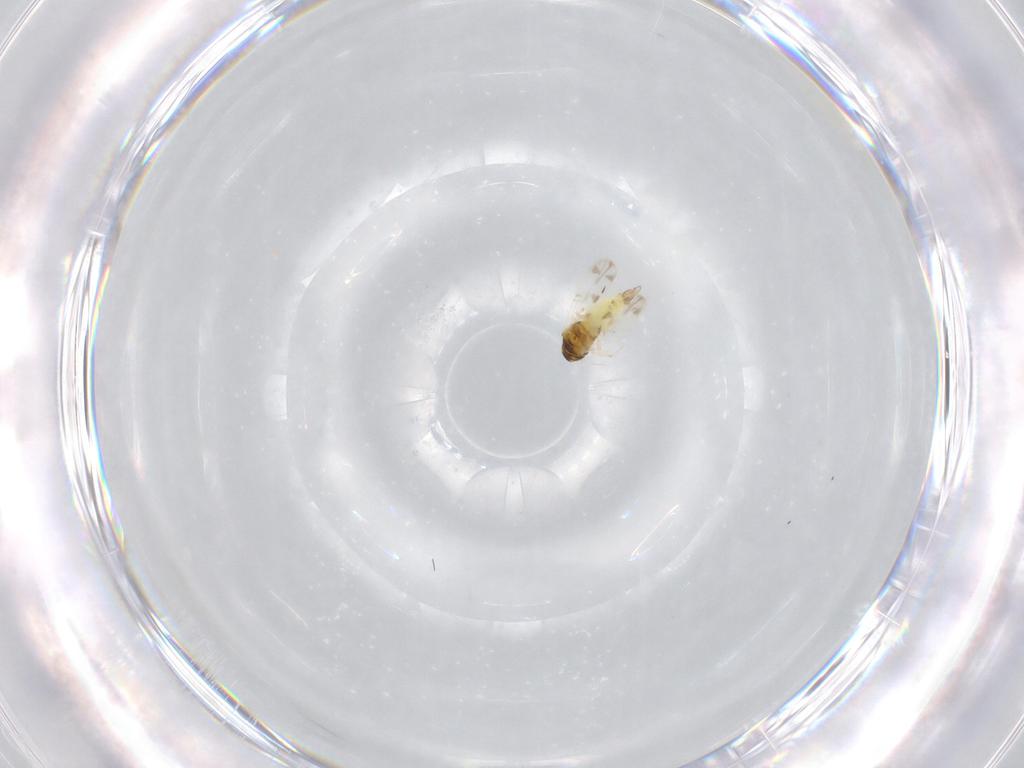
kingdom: Animalia
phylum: Arthropoda
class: Insecta
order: Hemiptera
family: Aleyrodidae
